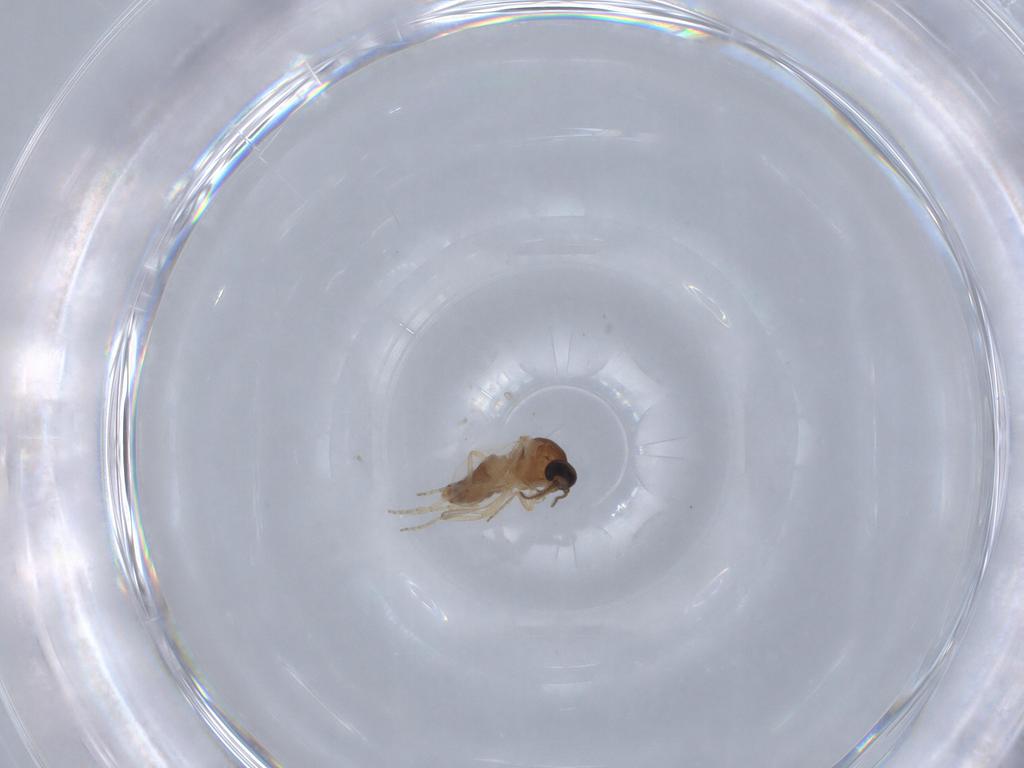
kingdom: Animalia
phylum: Arthropoda
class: Insecta
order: Diptera
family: Ceratopogonidae
